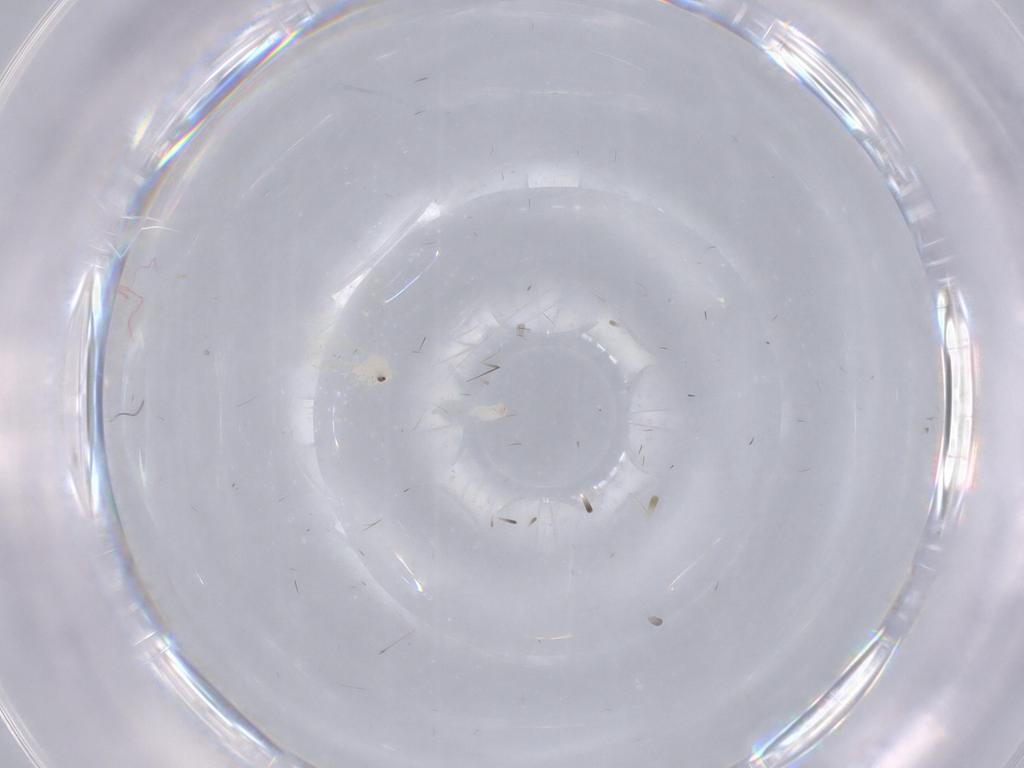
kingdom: Animalia
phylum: Arthropoda
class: Insecta
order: Hemiptera
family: Aleyrodidae
